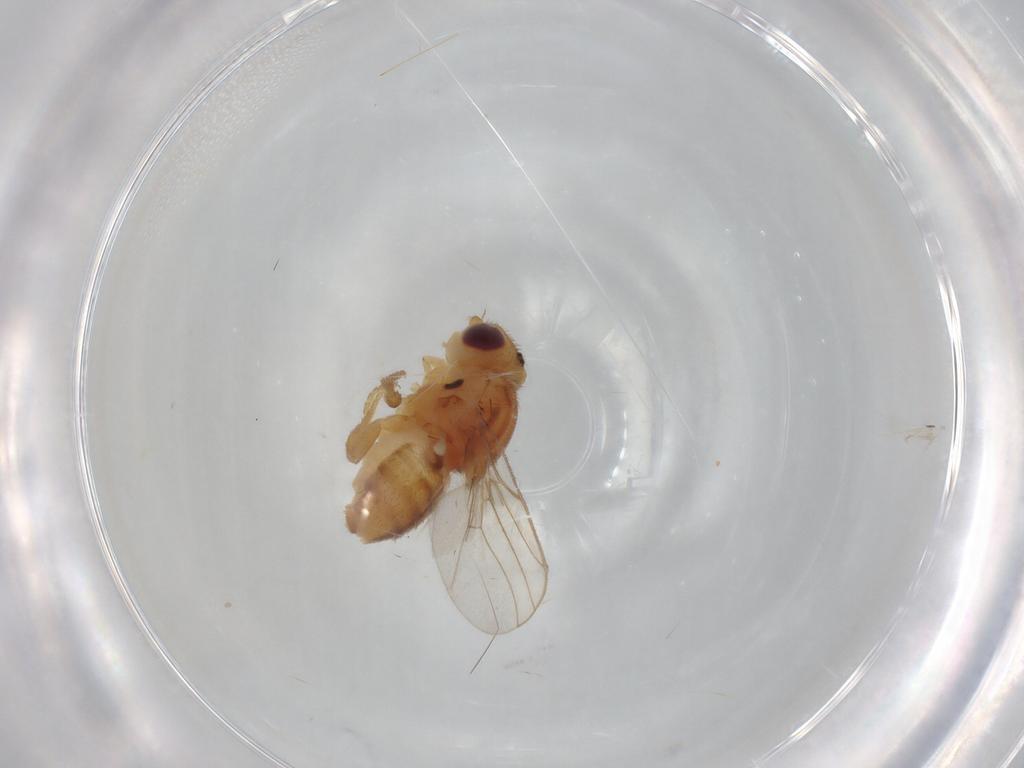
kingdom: Animalia
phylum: Arthropoda
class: Insecta
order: Diptera
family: Chloropidae
